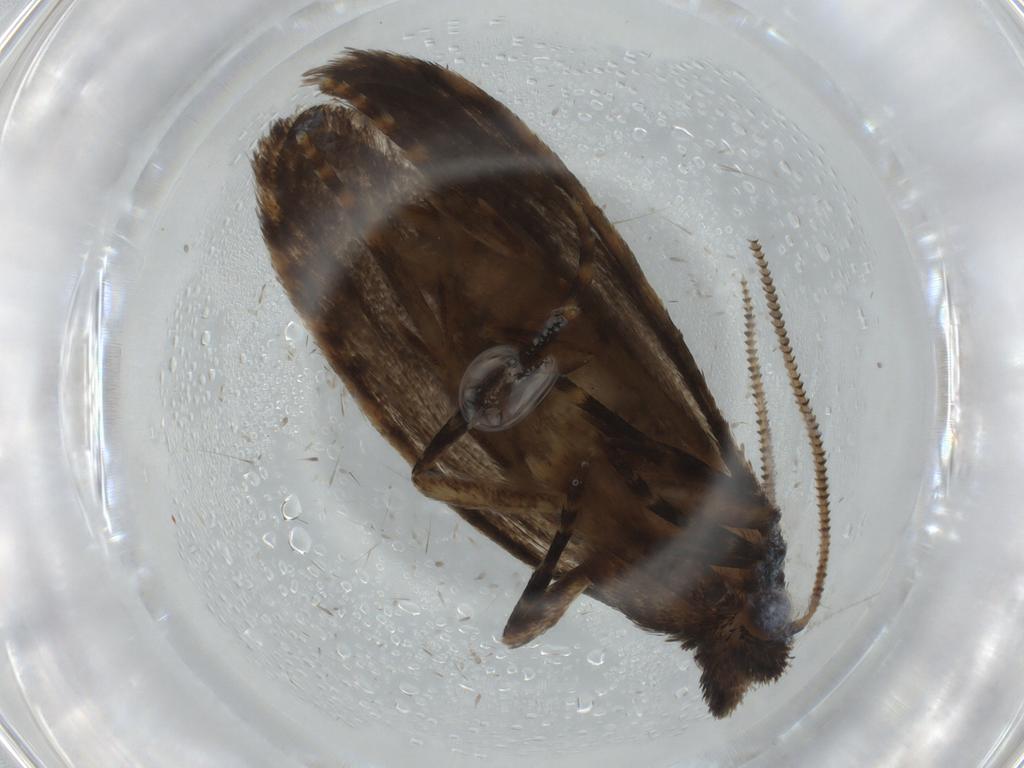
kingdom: Animalia
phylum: Arthropoda
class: Insecta
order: Lepidoptera
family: Tineidae
